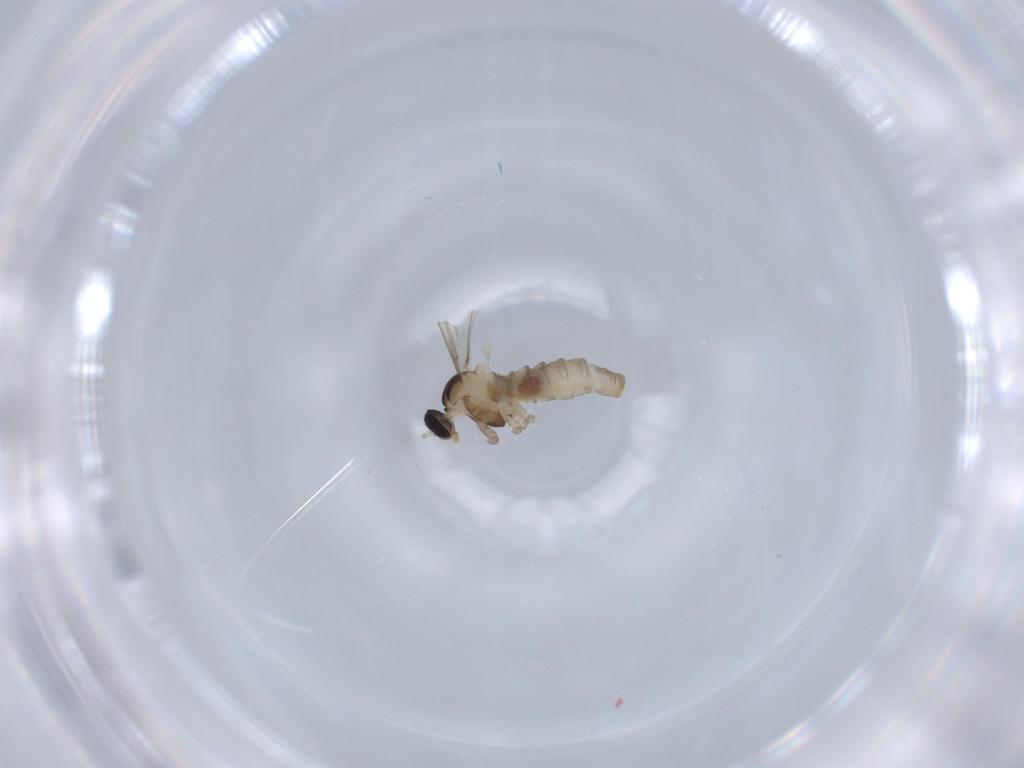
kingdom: Animalia
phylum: Arthropoda
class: Insecta
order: Diptera
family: Cecidomyiidae
